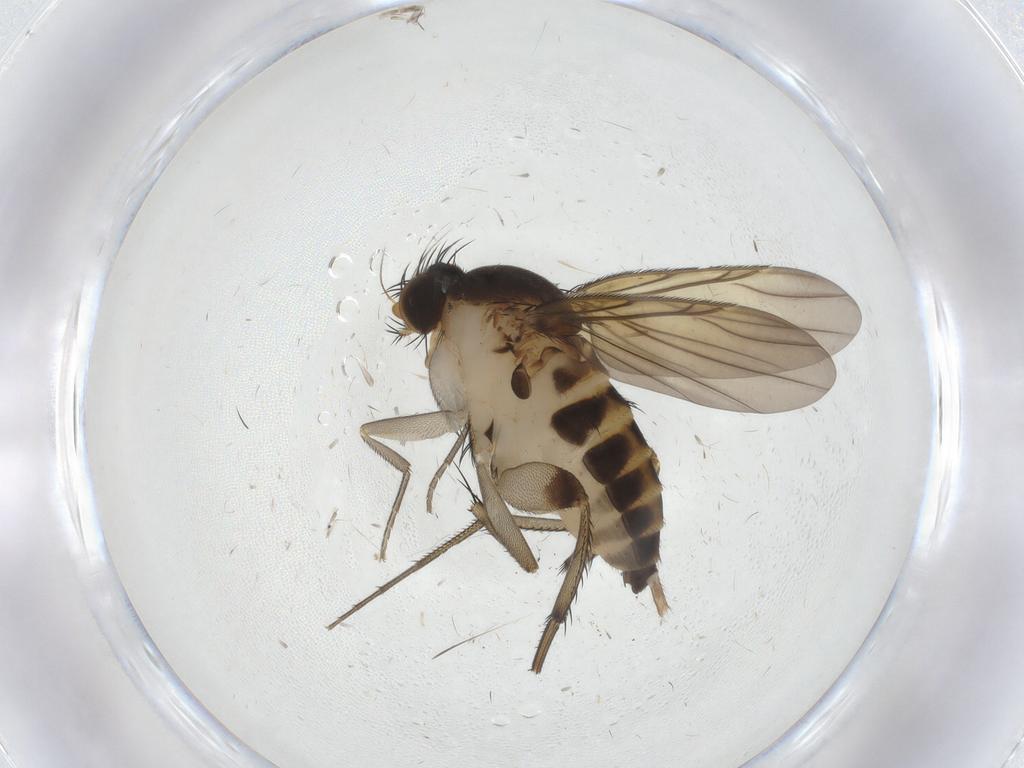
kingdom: Animalia
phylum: Arthropoda
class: Insecta
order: Diptera
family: Phoridae
